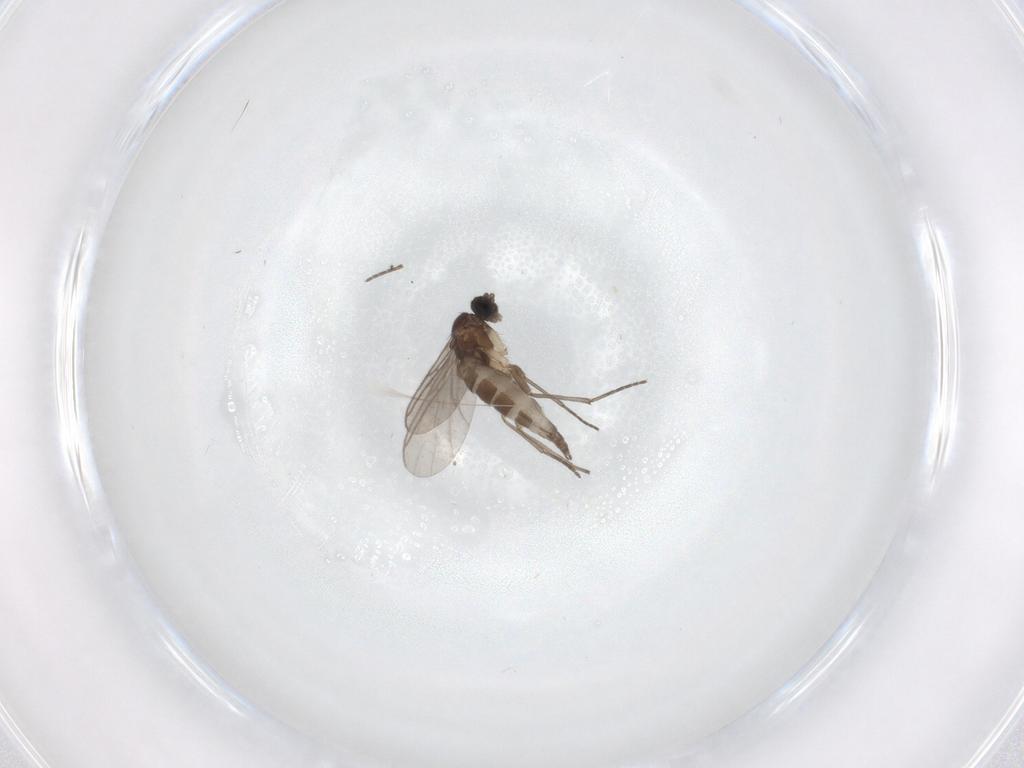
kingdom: Animalia
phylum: Arthropoda
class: Insecta
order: Diptera
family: Sciaridae
